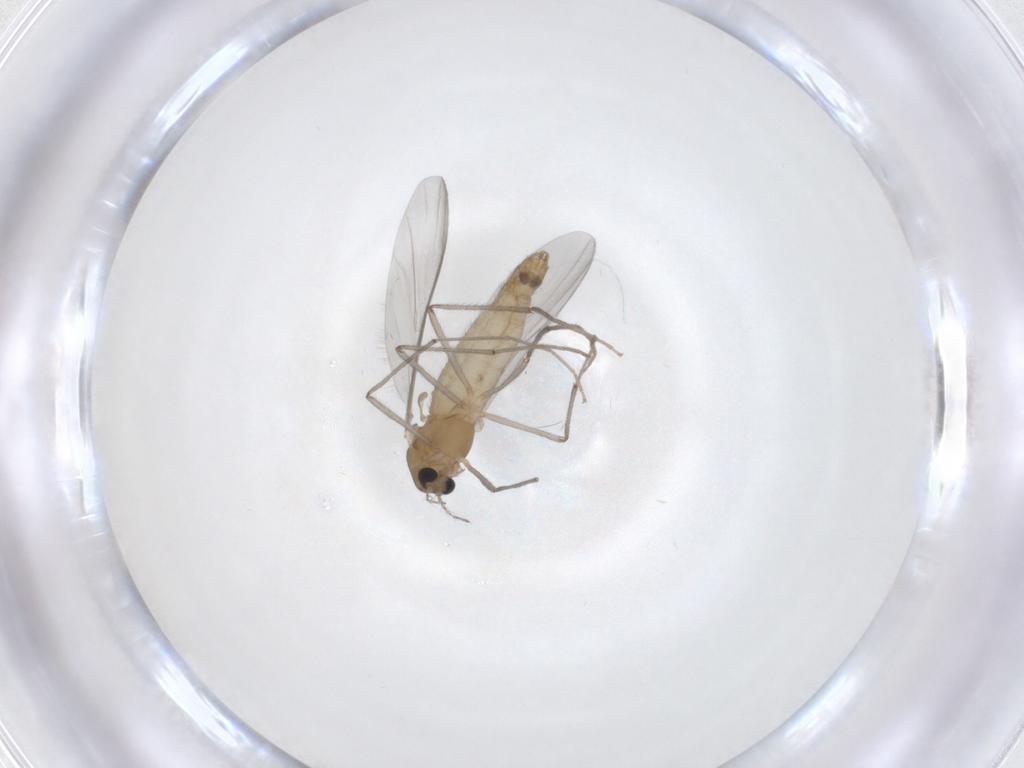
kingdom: Animalia
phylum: Arthropoda
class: Insecta
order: Diptera
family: Chironomidae
